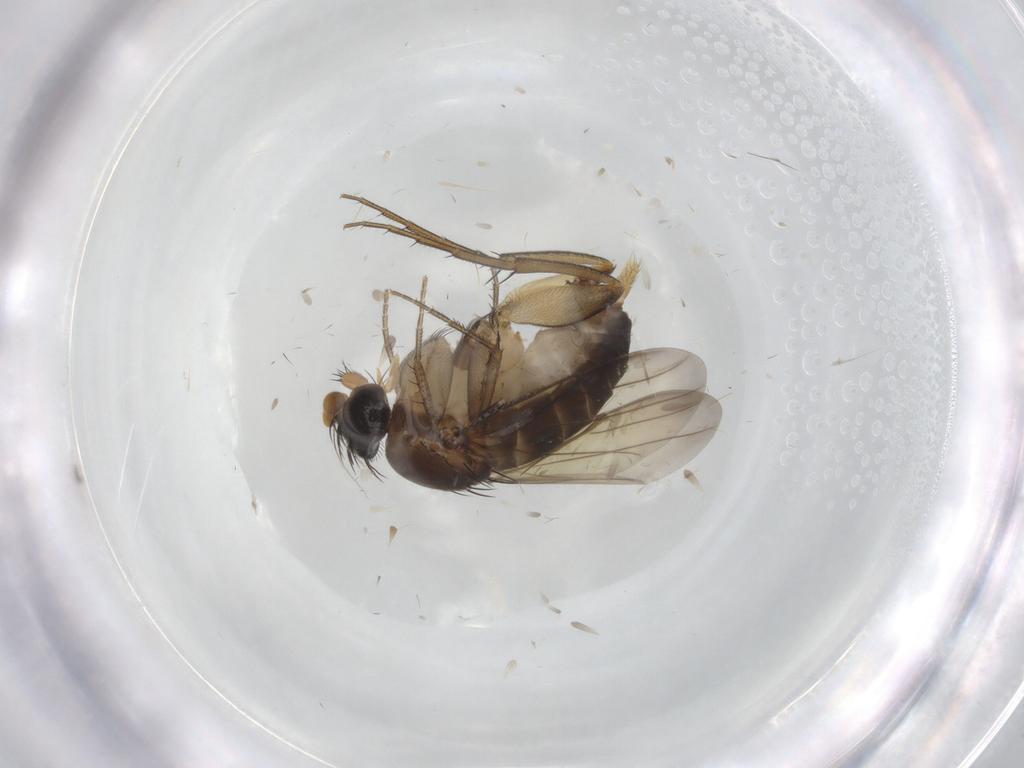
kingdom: Animalia
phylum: Arthropoda
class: Insecta
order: Diptera
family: Phoridae
